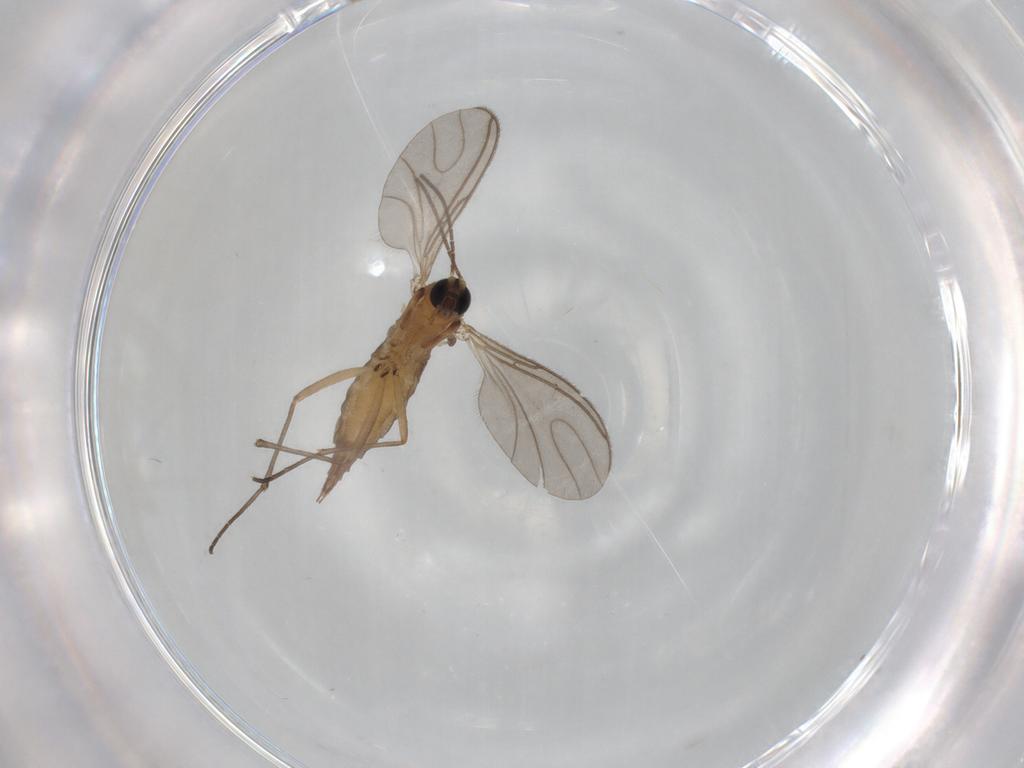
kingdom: Animalia
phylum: Arthropoda
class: Insecta
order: Diptera
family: Sciaridae
